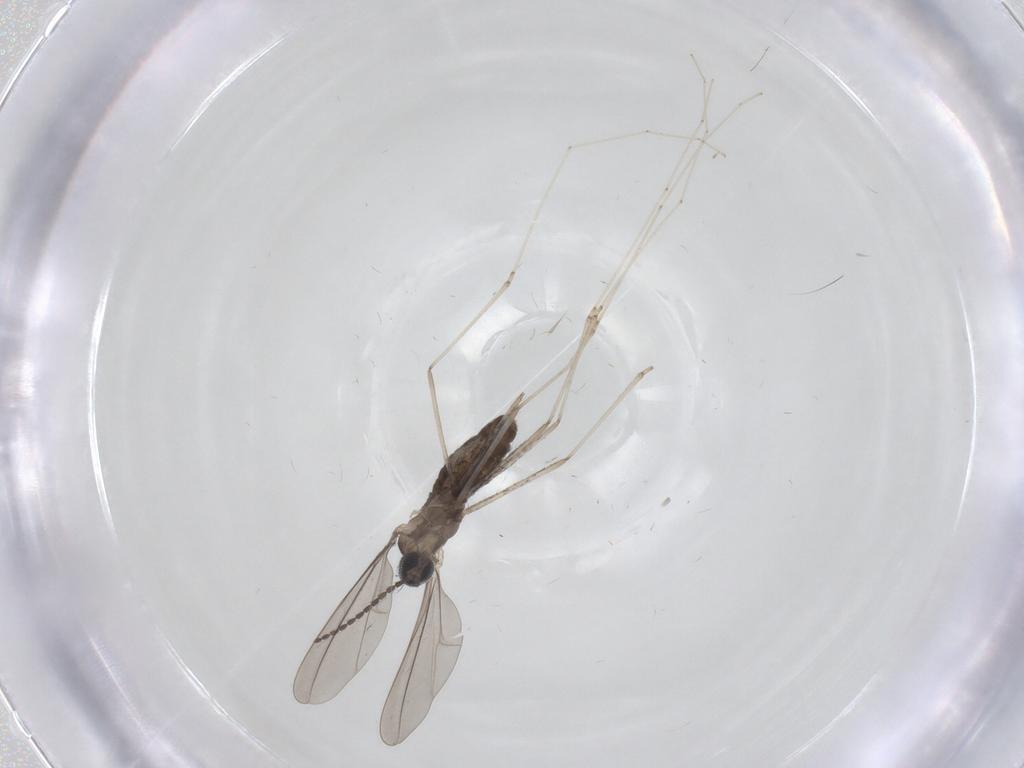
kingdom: Animalia
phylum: Arthropoda
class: Insecta
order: Diptera
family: Cecidomyiidae
